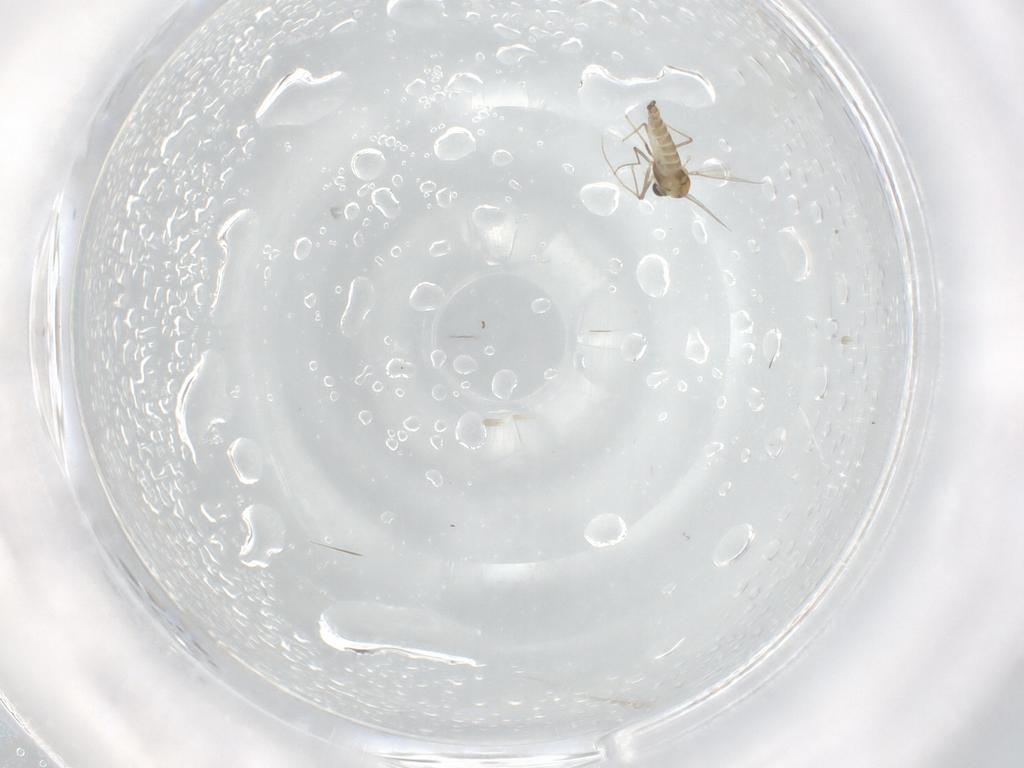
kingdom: Animalia
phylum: Arthropoda
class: Insecta
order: Diptera
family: Chironomidae
